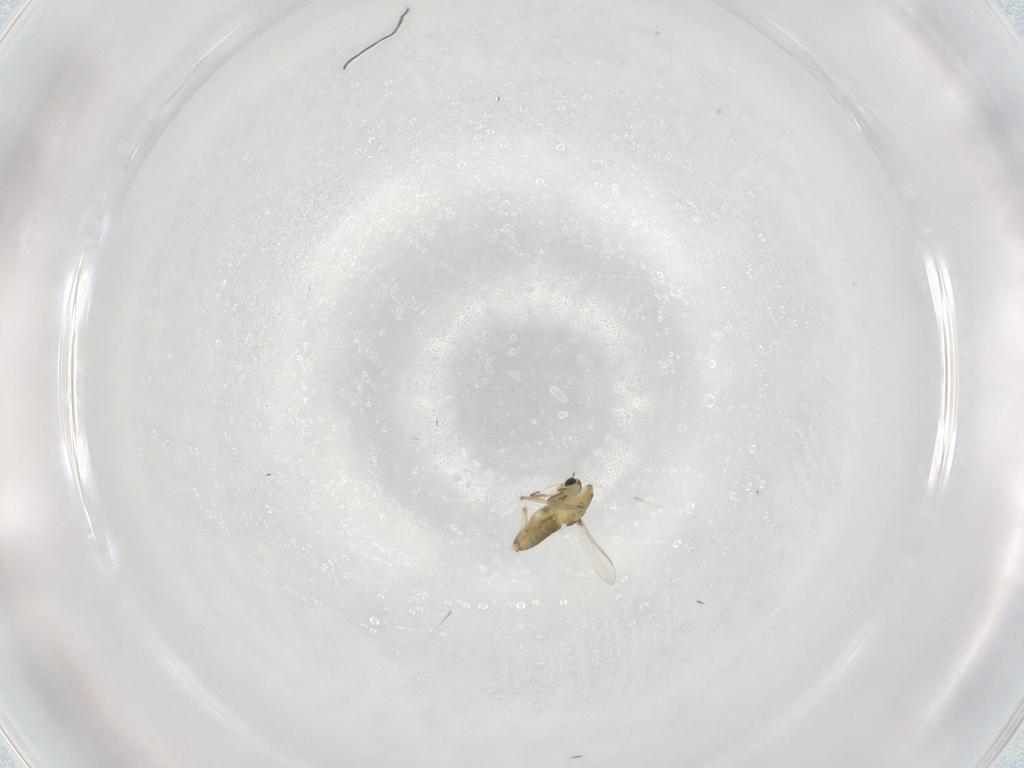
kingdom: Animalia
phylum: Arthropoda
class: Insecta
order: Diptera
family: Chironomidae
